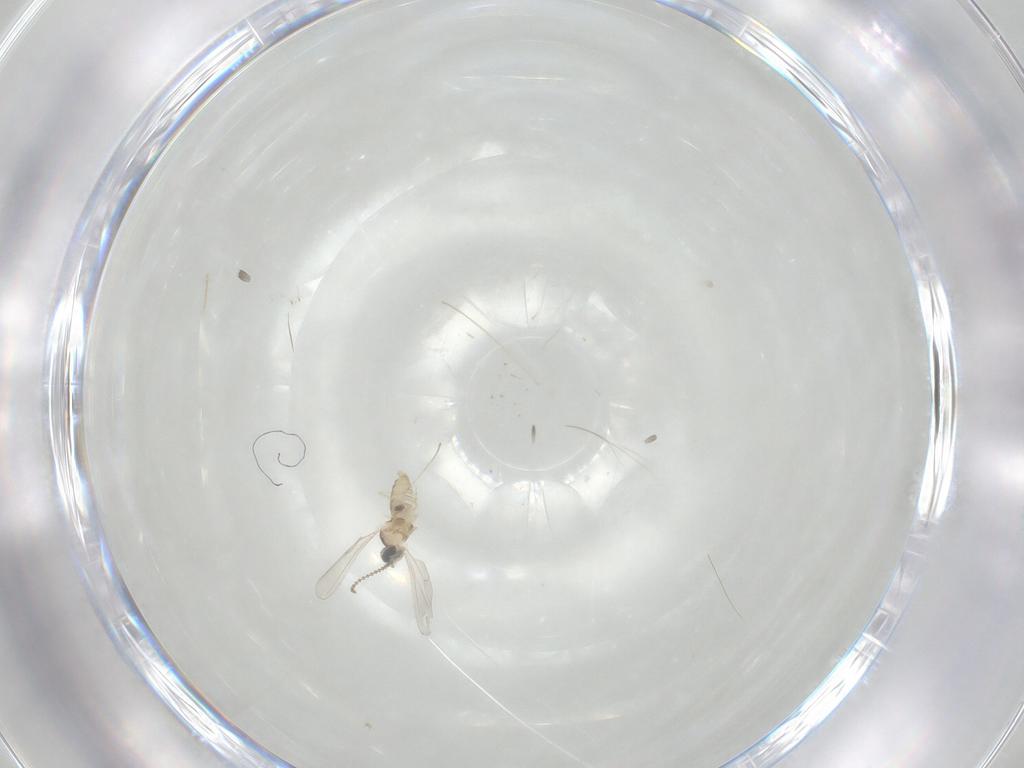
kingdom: Animalia
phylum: Arthropoda
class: Insecta
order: Diptera
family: Cecidomyiidae
